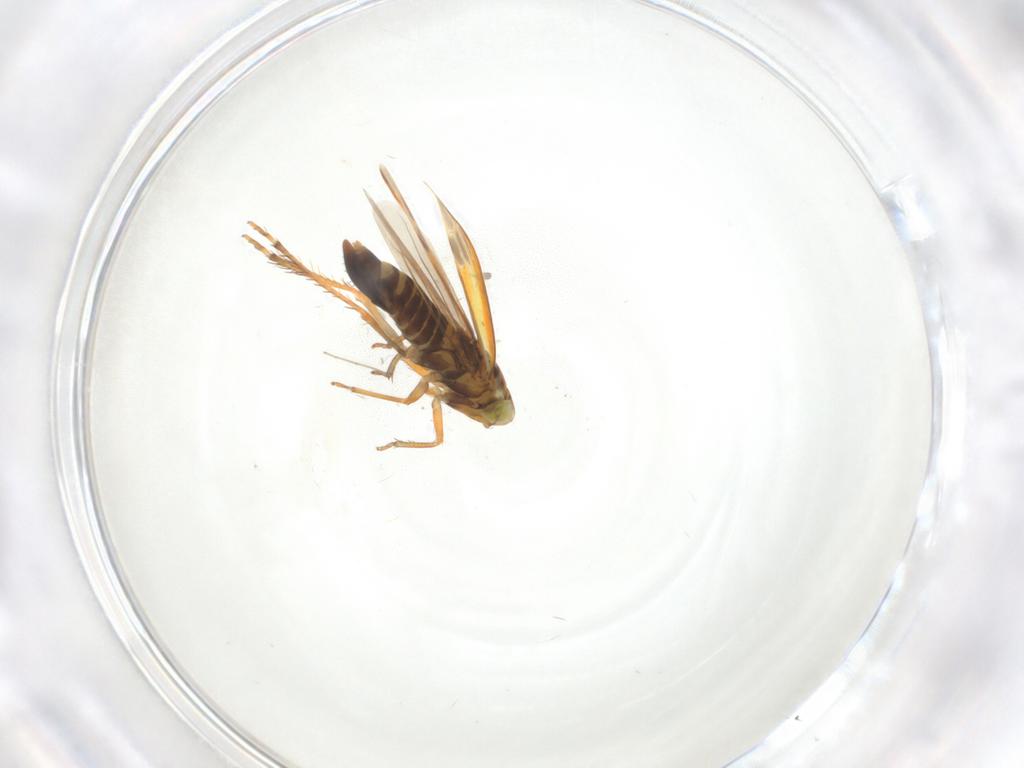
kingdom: Animalia
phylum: Arthropoda
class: Insecta
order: Hemiptera
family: Cicadellidae
